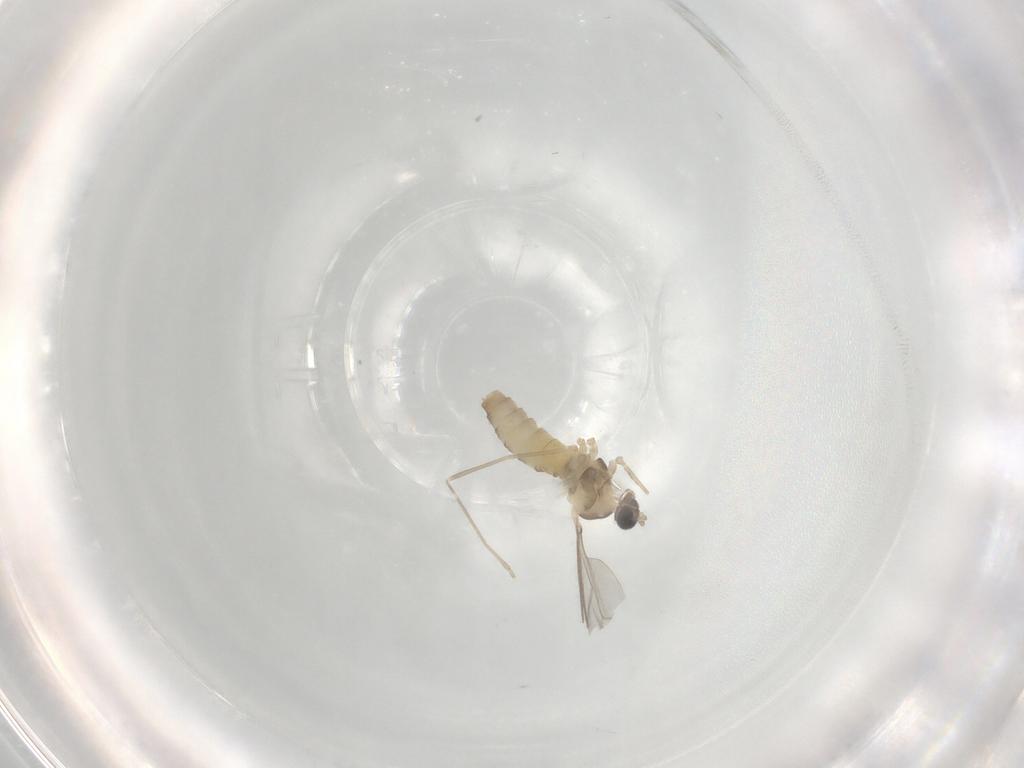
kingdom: Animalia
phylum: Arthropoda
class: Insecta
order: Diptera
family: Cecidomyiidae
